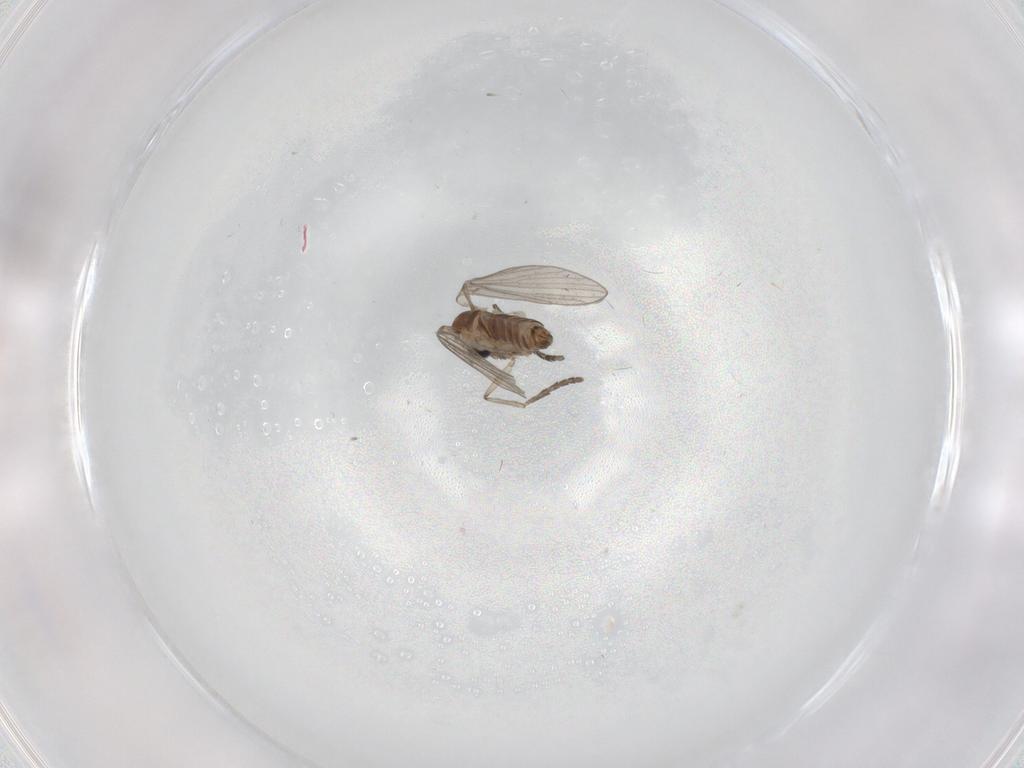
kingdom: Animalia
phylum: Arthropoda
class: Insecta
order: Diptera
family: Psychodidae
